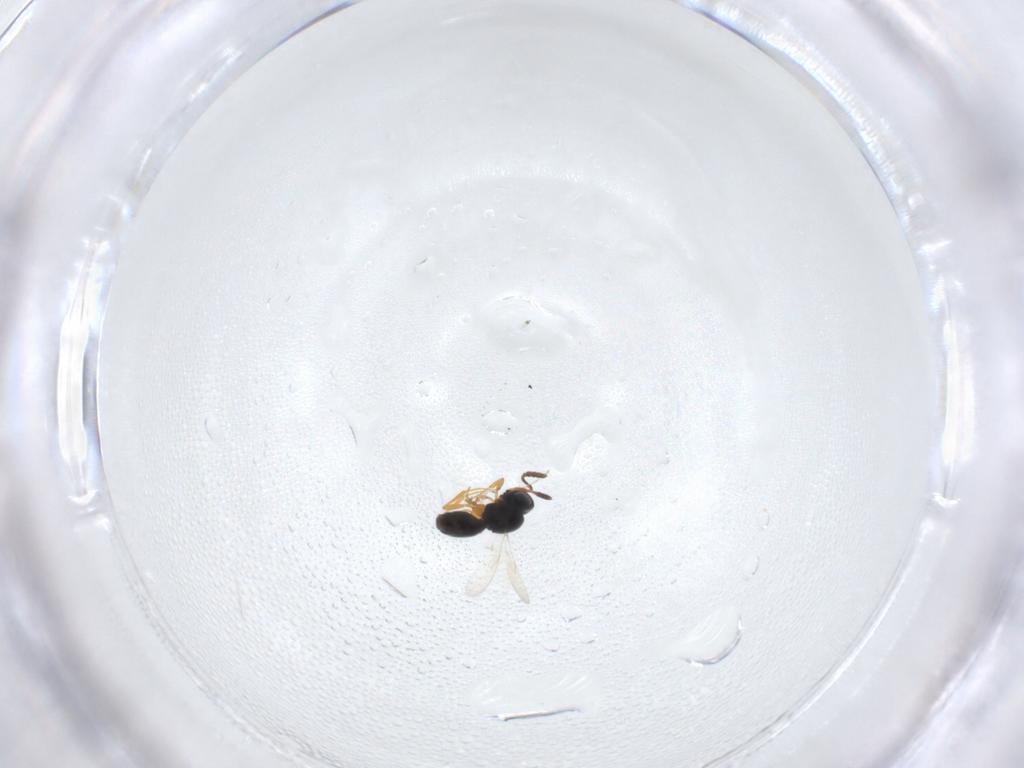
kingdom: Animalia
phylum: Arthropoda
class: Insecta
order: Hymenoptera
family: Scelionidae
